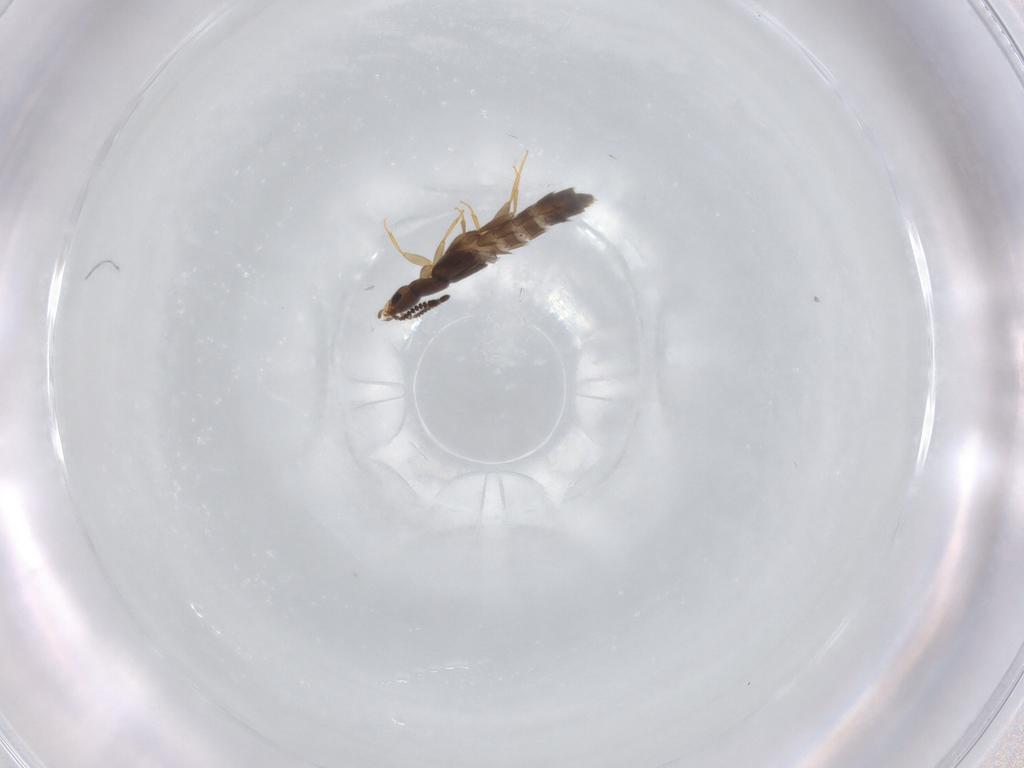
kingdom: Animalia
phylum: Arthropoda
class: Insecta
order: Coleoptera
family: Staphylinidae
